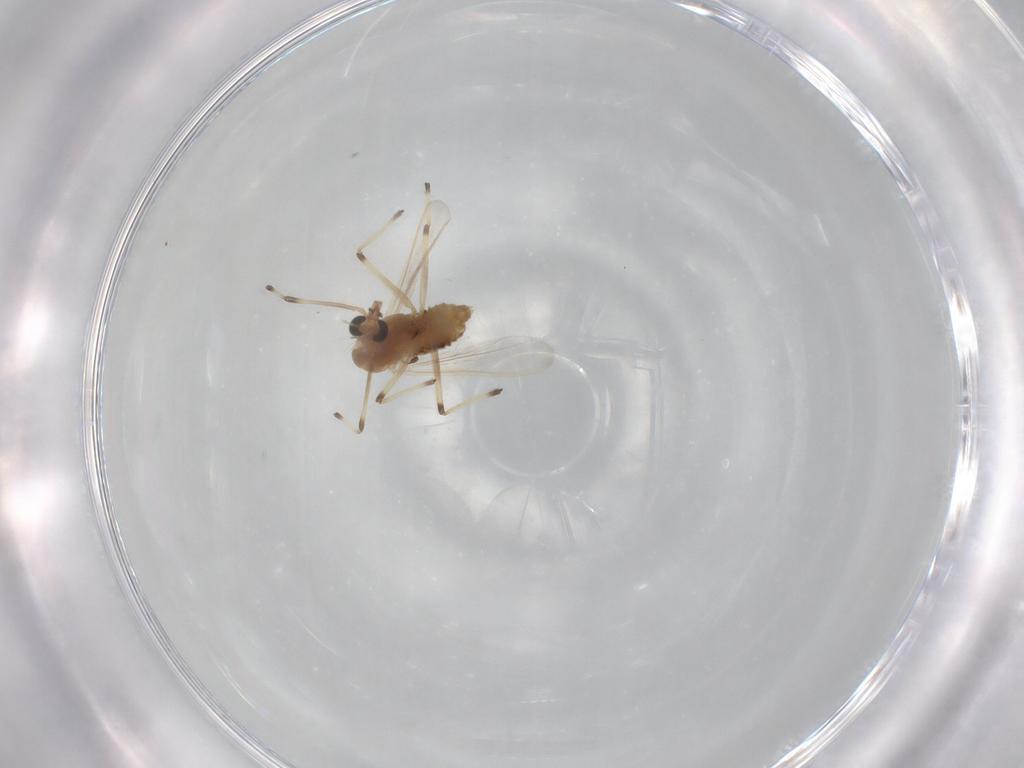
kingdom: Animalia
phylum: Arthropoda
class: Insecta
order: Diptera
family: Chironomidae
